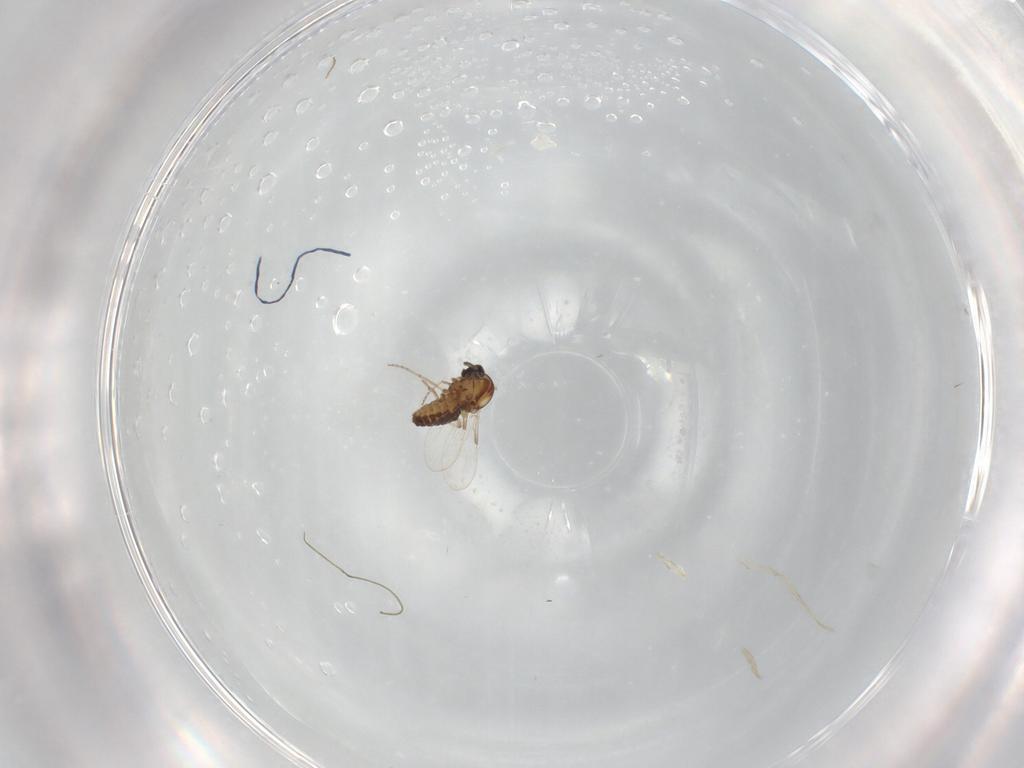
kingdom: Animalia
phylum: Arthropoda
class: Insecta
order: Diptera
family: Ceratopogonidae
